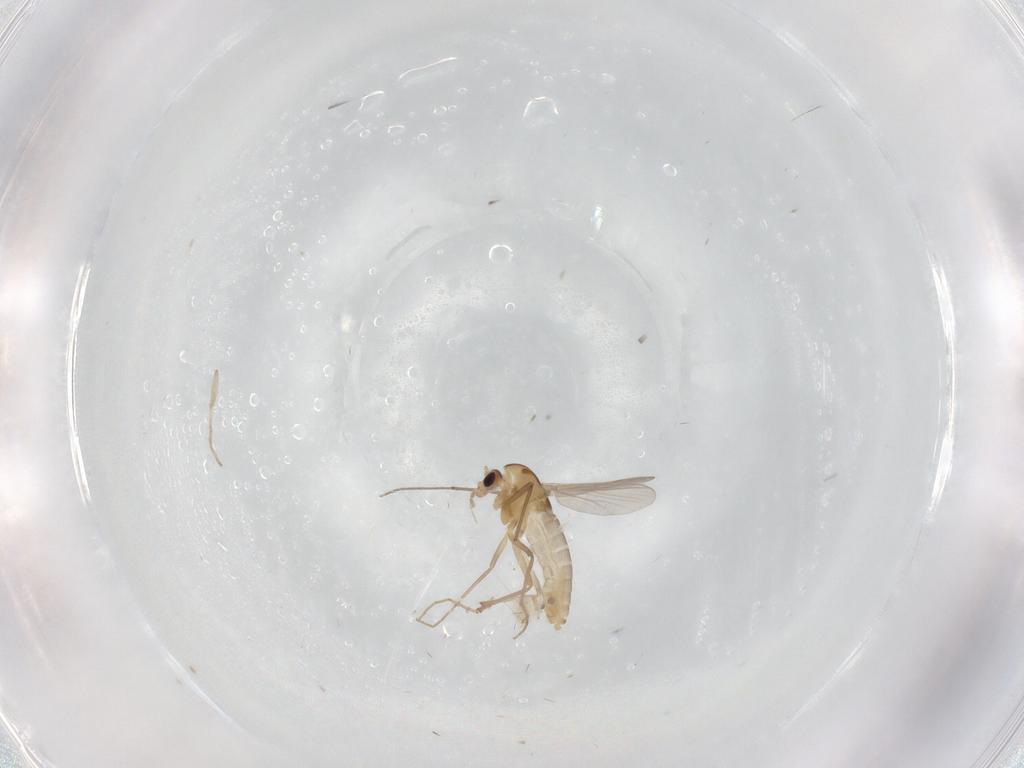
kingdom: Animalia
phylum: Arthropoda
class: Insecta
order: Diptera
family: Chironomidae
